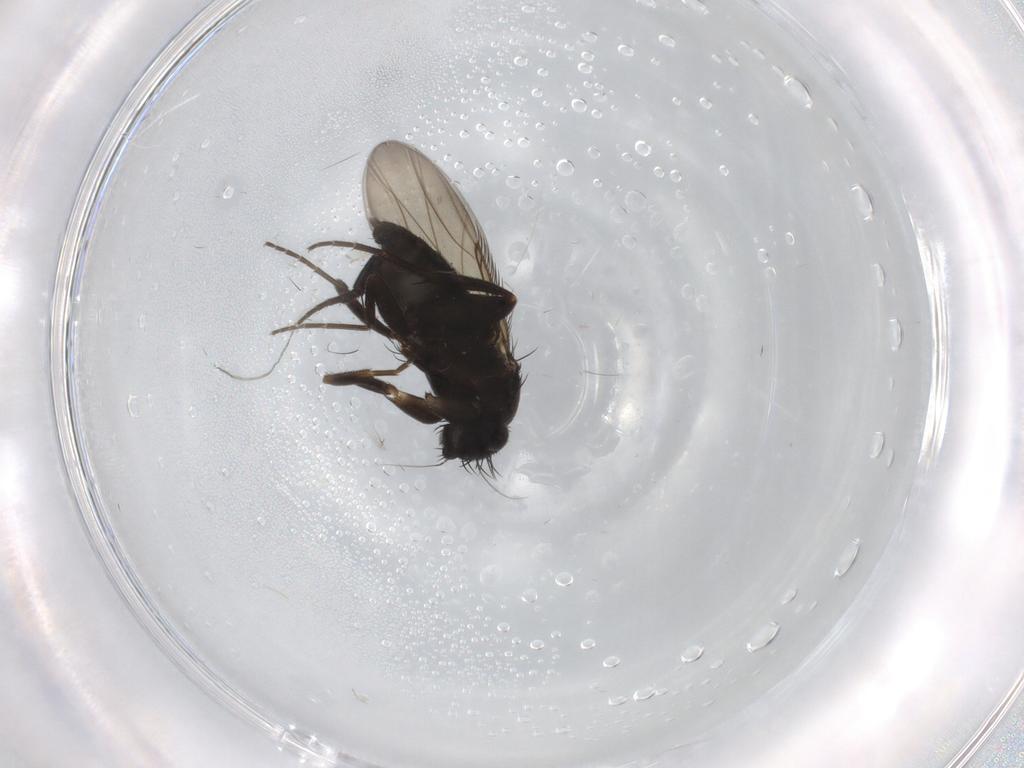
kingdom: Animalia
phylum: Arthropoda
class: Insecta
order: Diptera
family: Phoridae
